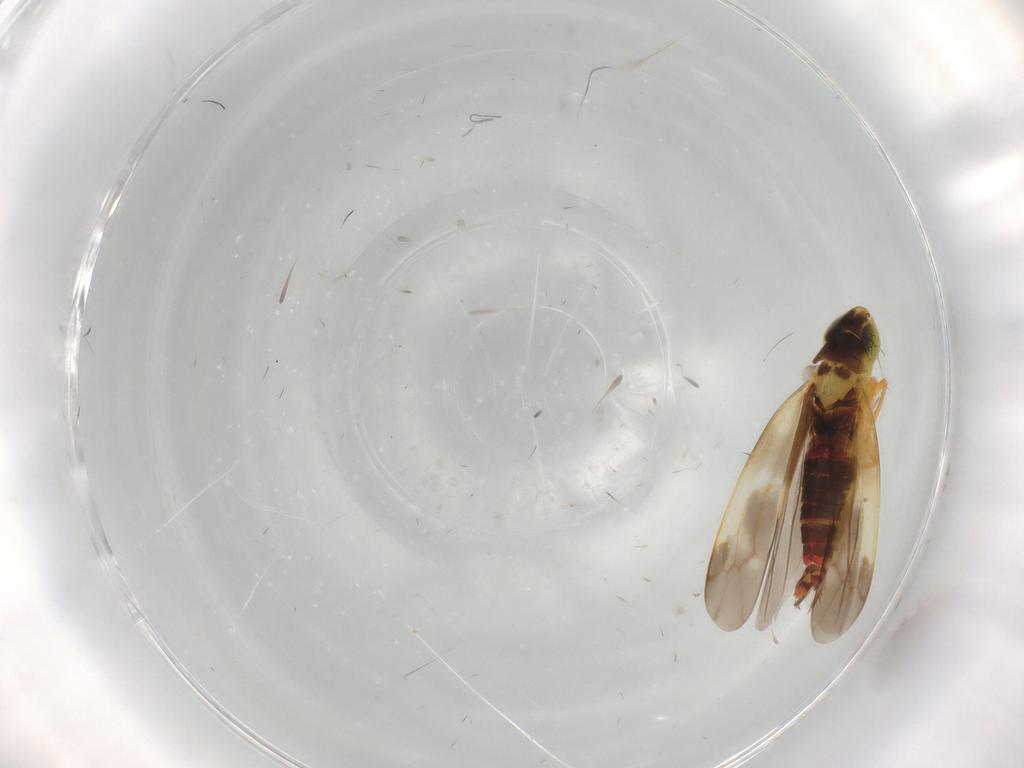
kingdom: Animalia
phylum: Arthropoda
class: Insecta
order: Hemiptera
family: Cicadellidae
